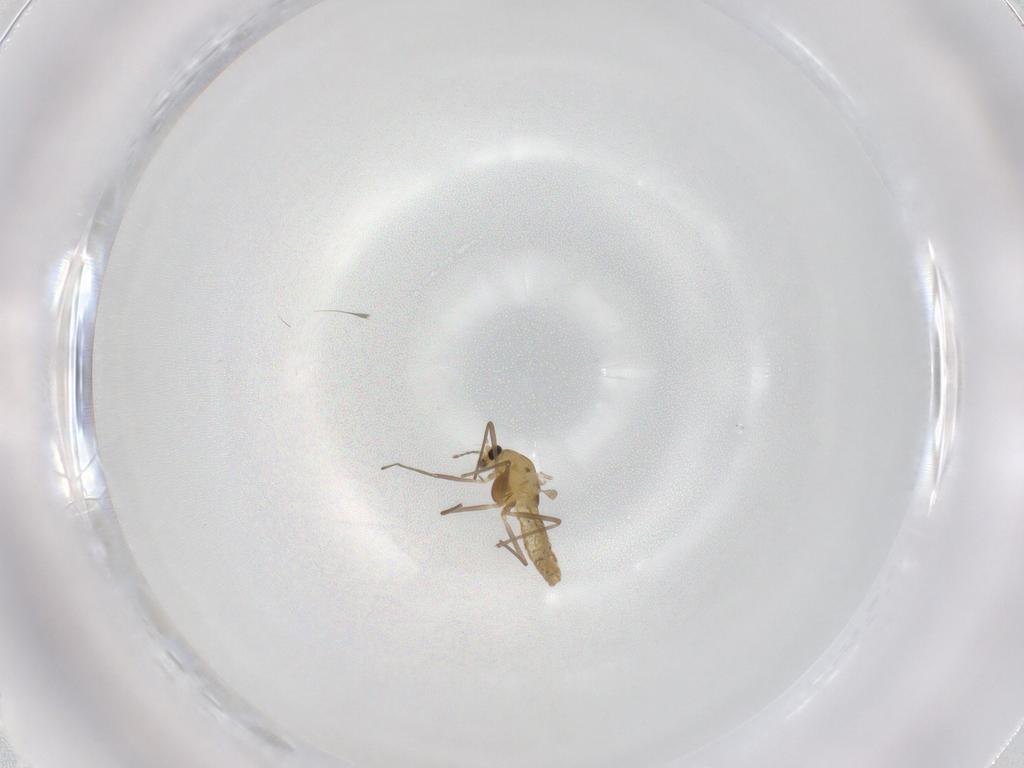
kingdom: Animalia
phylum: Arthropoda
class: Insecta
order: Diptera
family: Chironomidae
